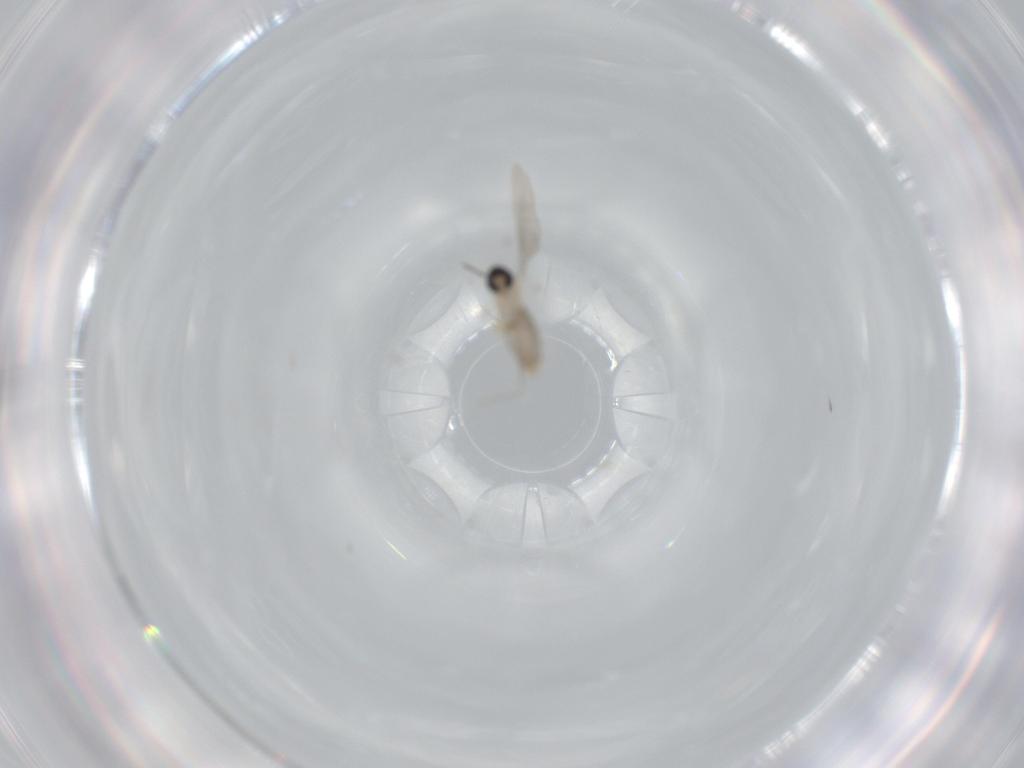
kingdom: Animalia
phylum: Arthropoda
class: Insecta
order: Diptera
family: Cecidomyiidae
